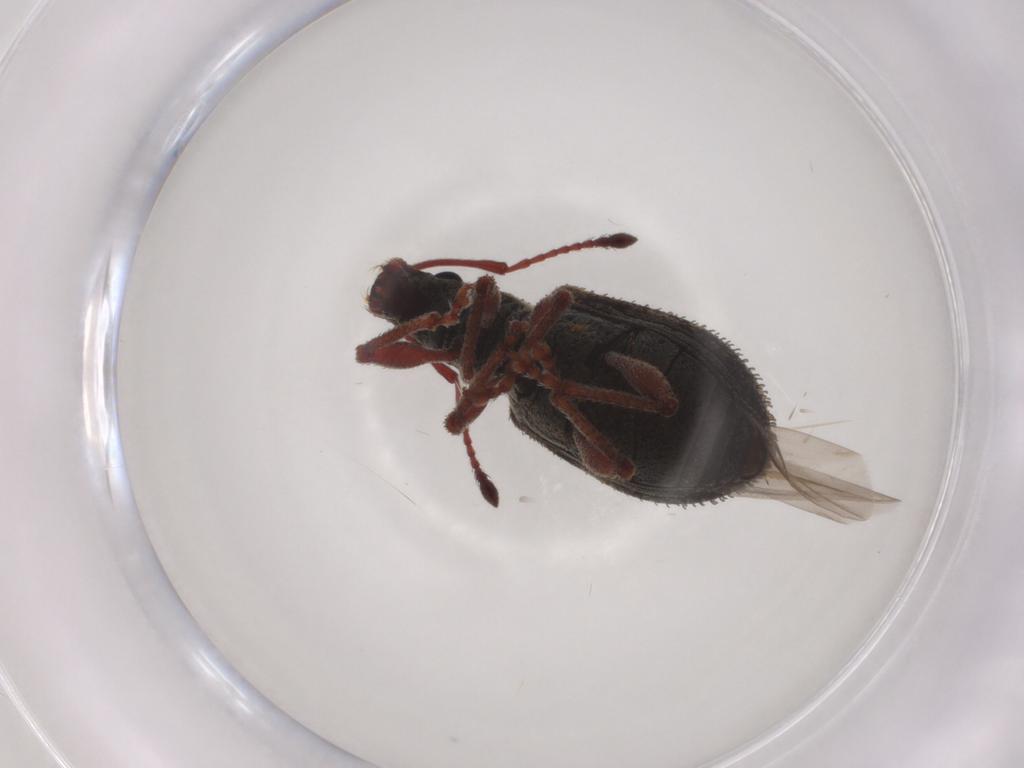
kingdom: Animalia
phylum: Arthropoda
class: Insecta
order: Coleoptera
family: Curculionidae
